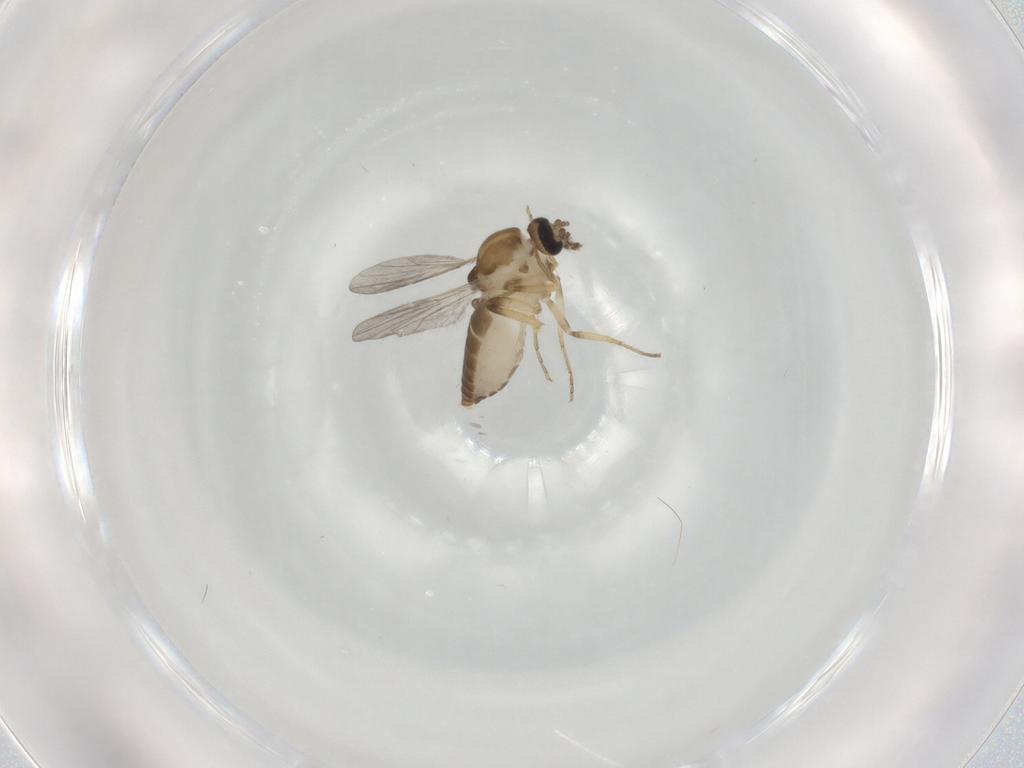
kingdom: Animalia
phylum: Arthropoda
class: Insecta
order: Diptera
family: Ceratopogonidae
